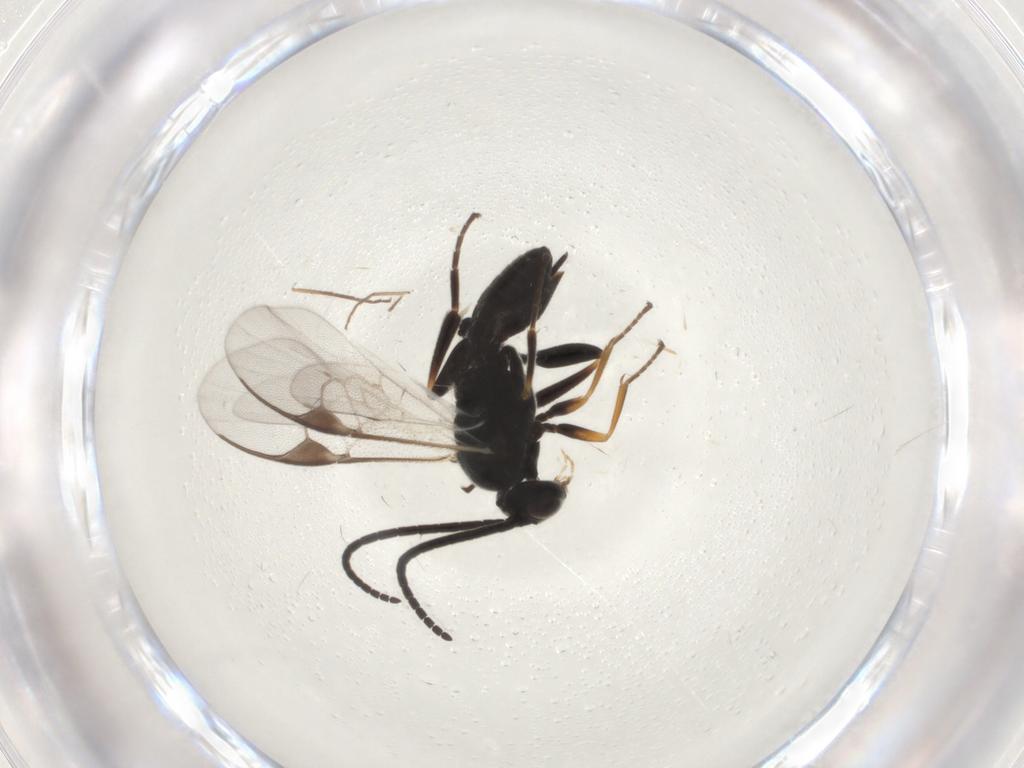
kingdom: Animalia
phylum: Arthropoda
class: Insecta
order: Hymenoptera
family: Braconidae
